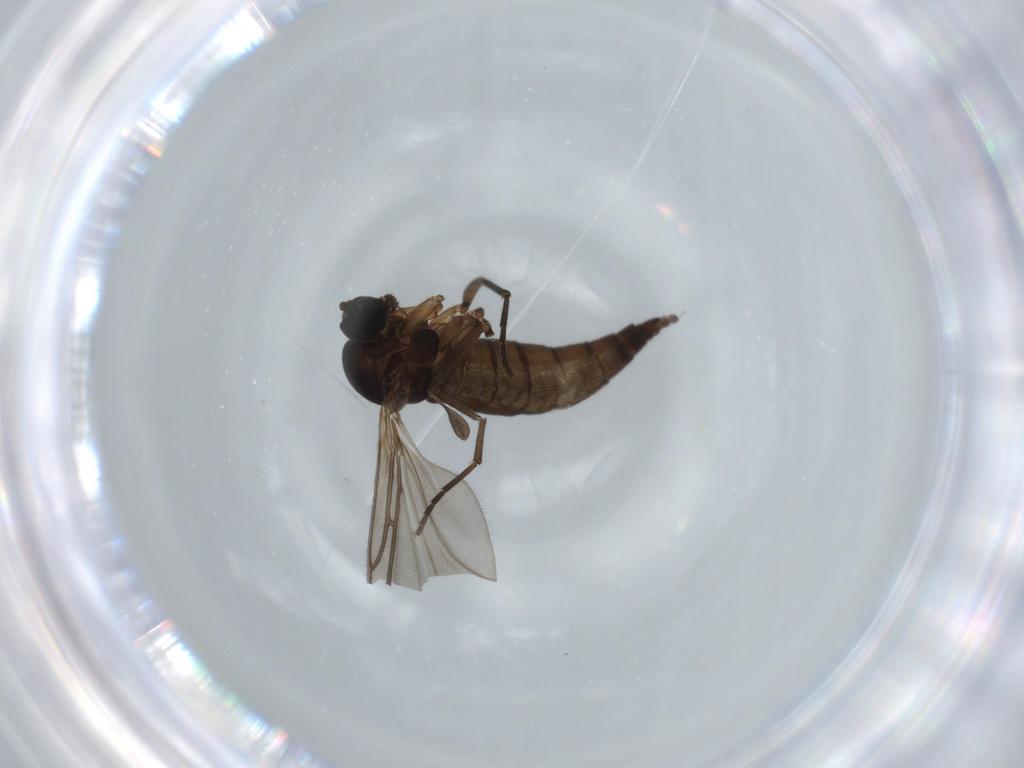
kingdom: Animalia
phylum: Arthropoda
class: Insecta
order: Diptera
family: Sciaridae
